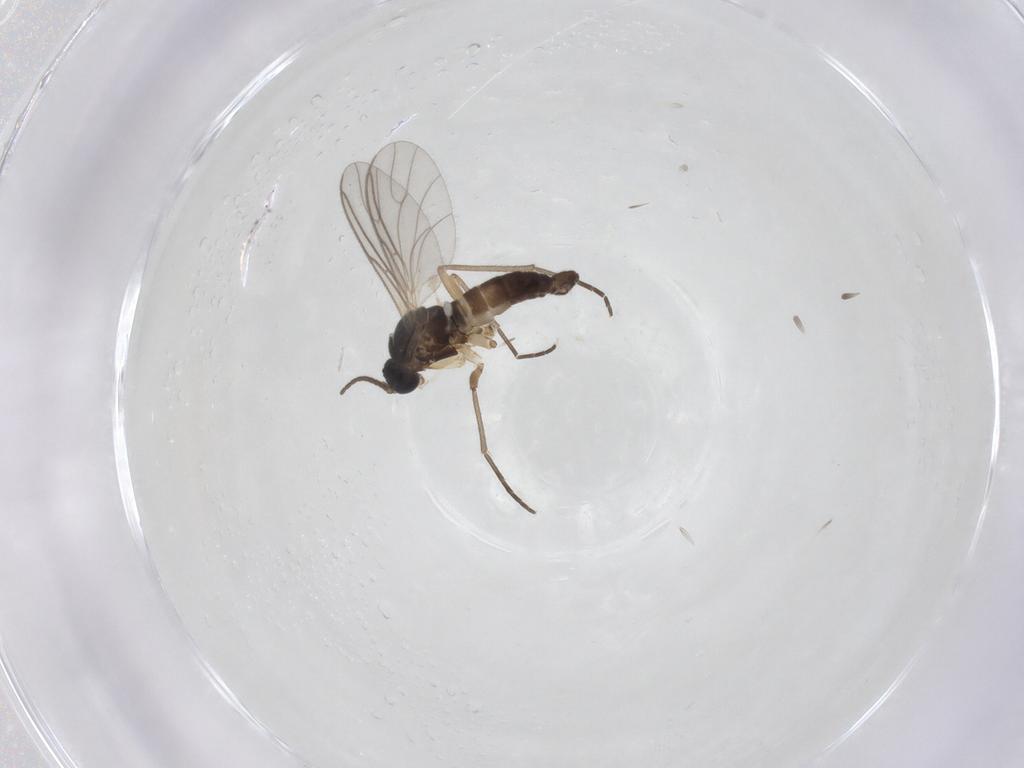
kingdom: Animalia
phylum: Arthropoda
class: Insecta
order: Diptera
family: Sciaridae
